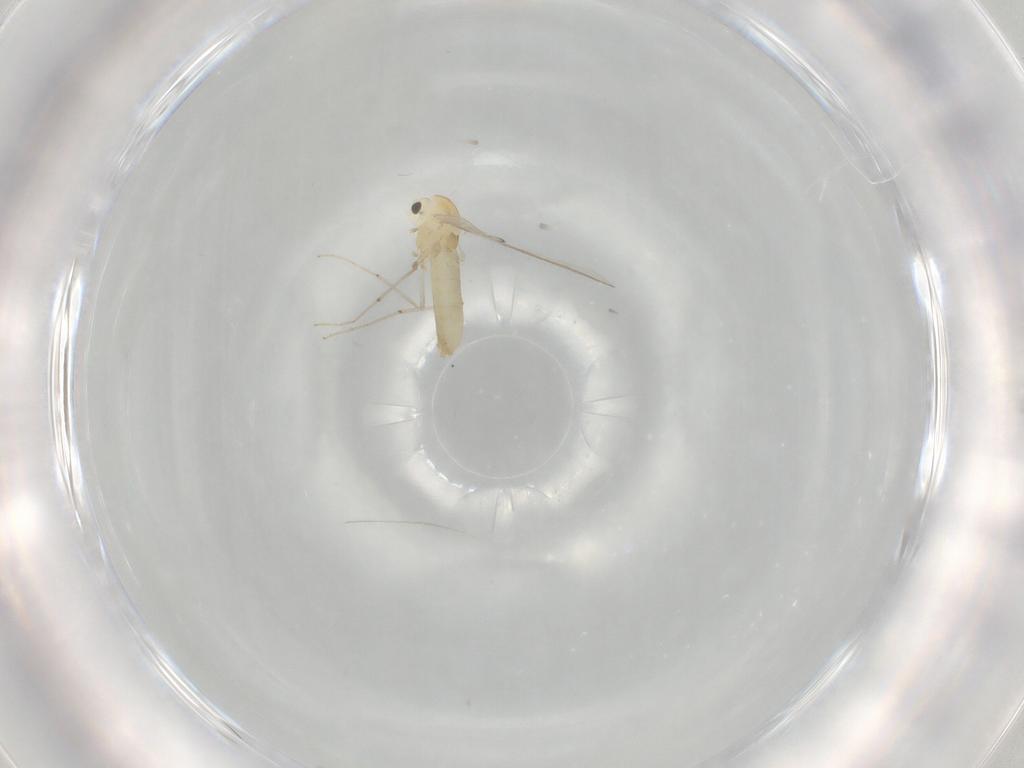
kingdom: Animalia
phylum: Arthropoda
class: Insecta
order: Diptera
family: Chironomidae
